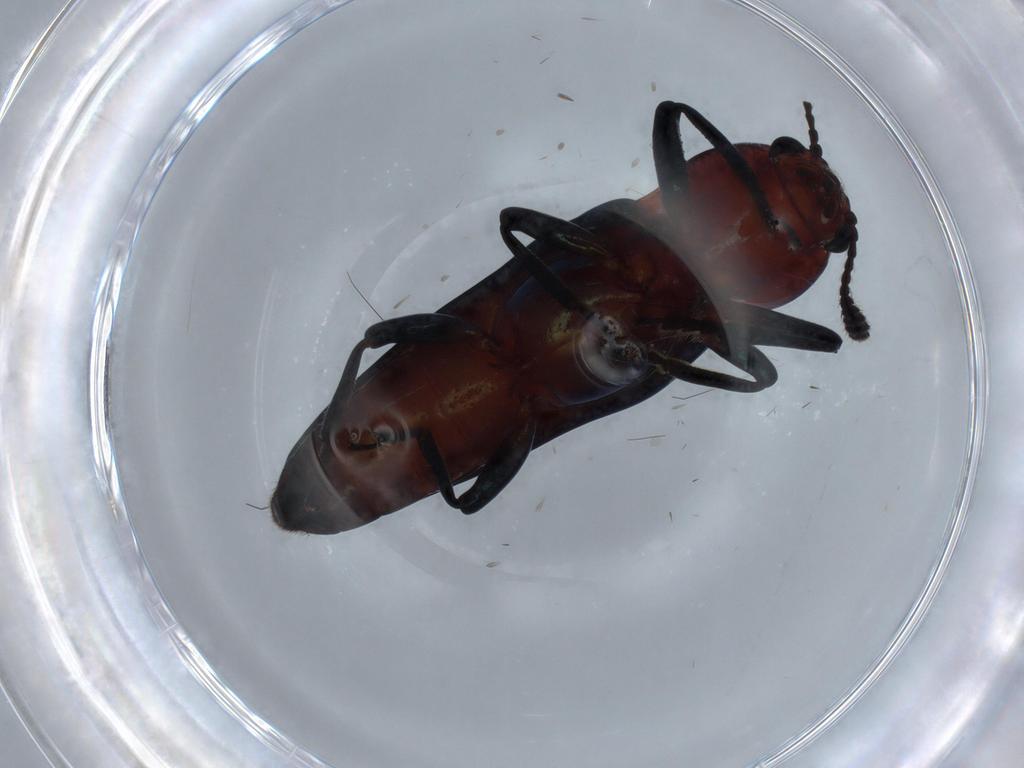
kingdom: Animalia
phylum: Arthropoda
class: Insecta
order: Coleoptera
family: Erotylidae
